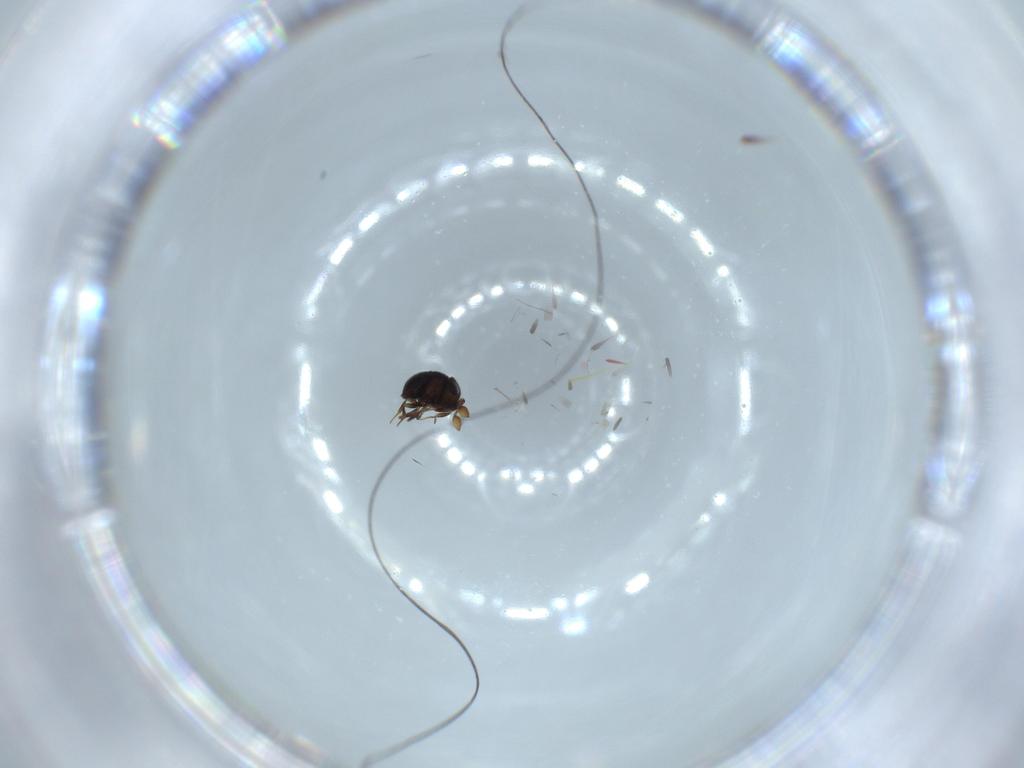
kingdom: Animalia
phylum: Arthropoda
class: Insecta
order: Hymenoptera
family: Scelionidae
